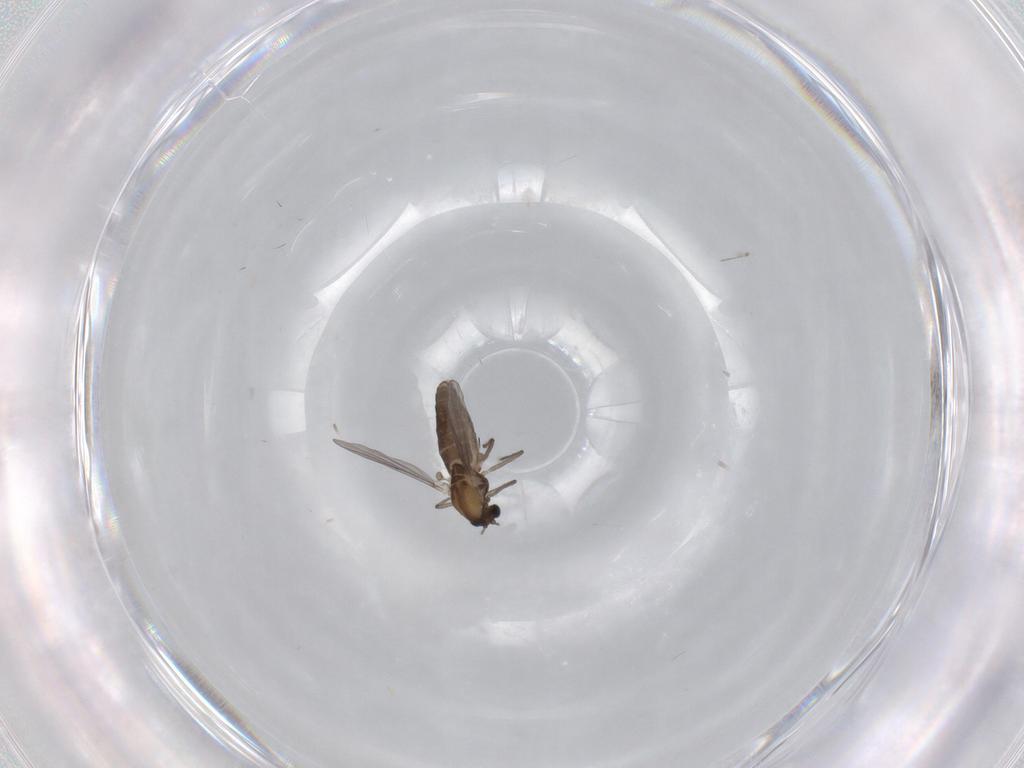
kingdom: Animalia
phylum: Arthropoda
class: Insecta
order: Diptera
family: Chironomidae
